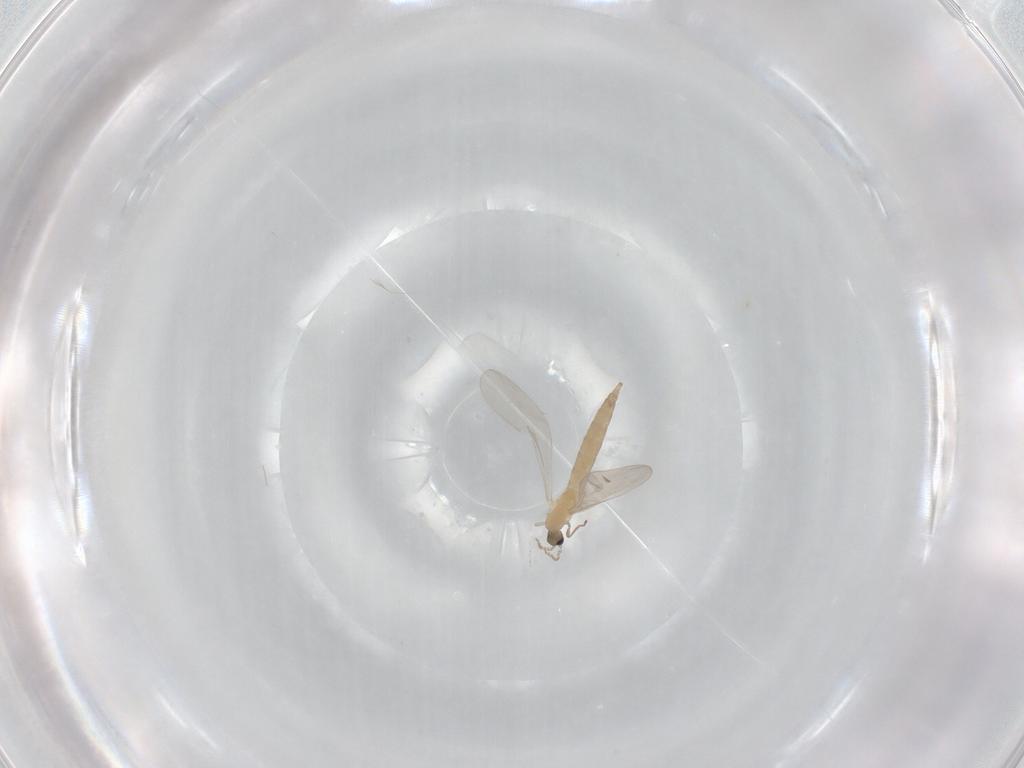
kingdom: Animalia
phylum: Arthropoda
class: Insecta
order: Diptera
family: Cecidomyiidae
